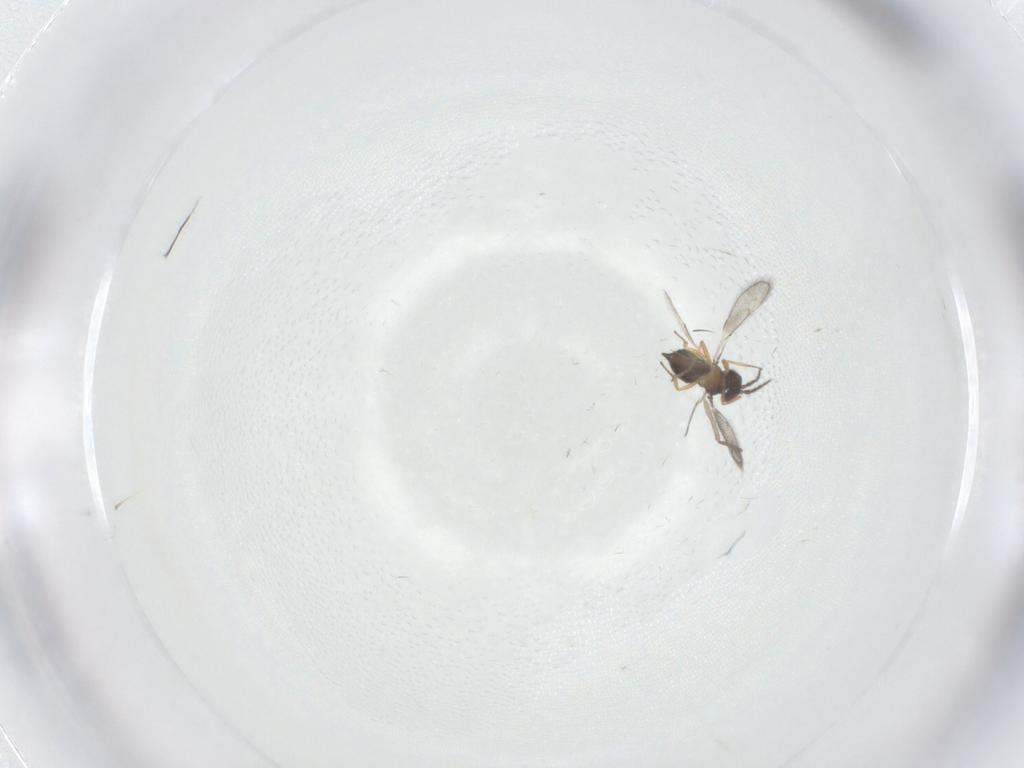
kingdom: Animalia
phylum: Arthropoda
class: Insecta
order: Hymenoptera
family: Eulophidae
